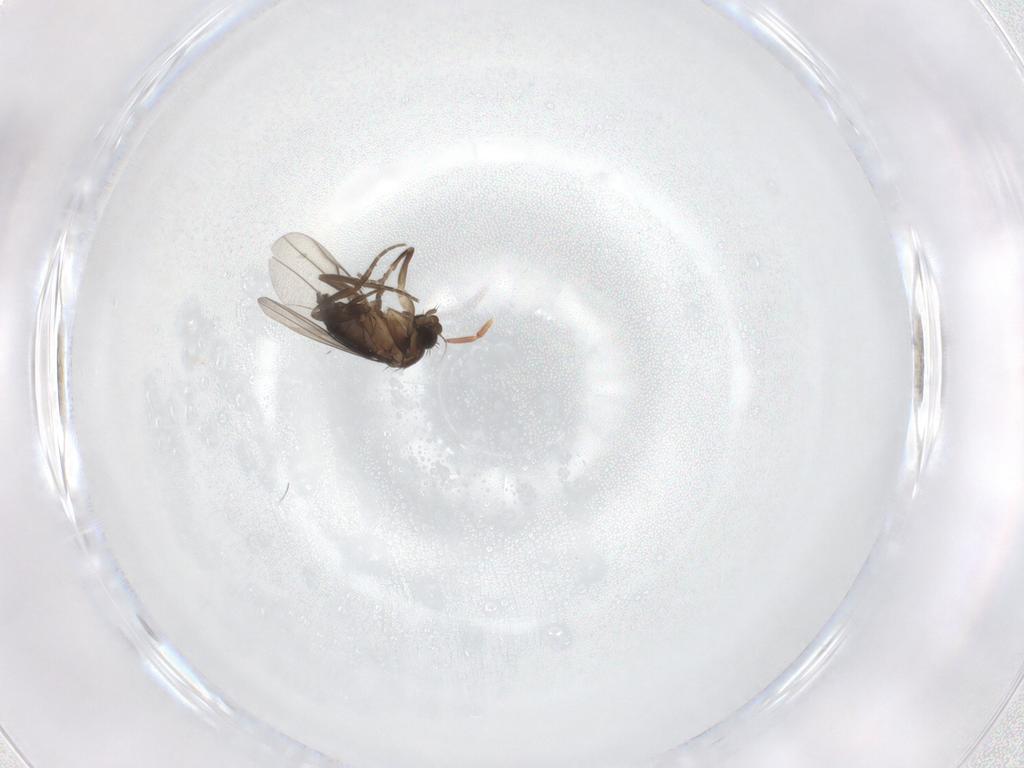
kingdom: Animalia
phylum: Arthropoda
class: Insecta
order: Diptera
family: Phoridae
